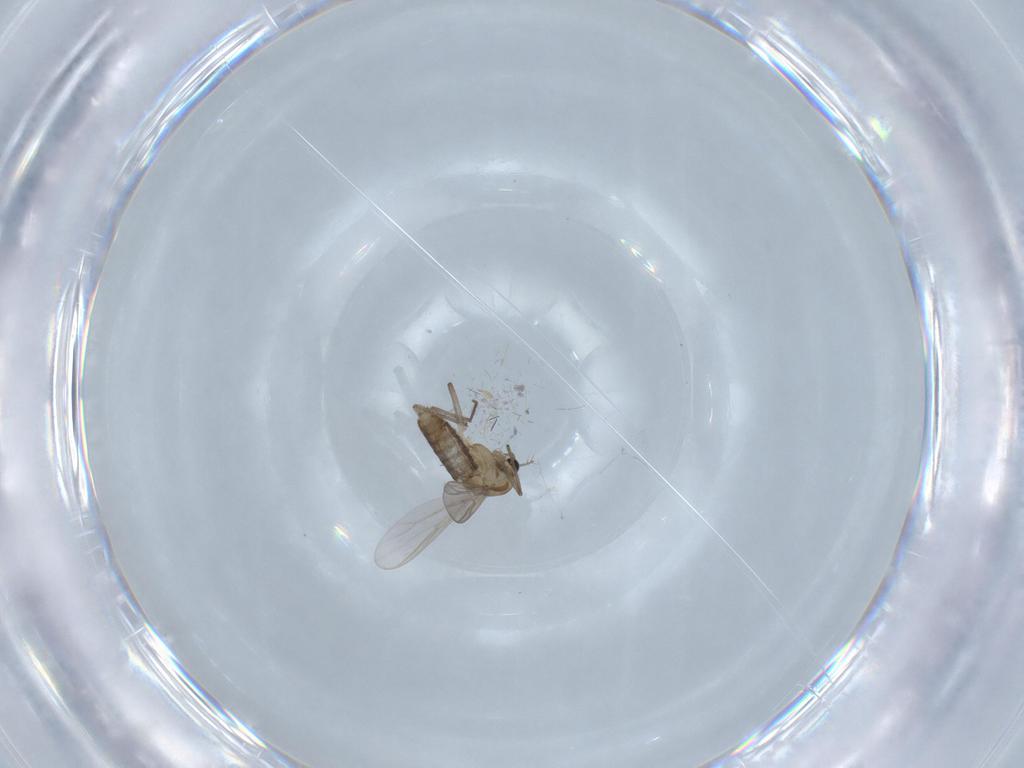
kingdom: Animalia
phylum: Arthropoda
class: Insecta
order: Diptera
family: Chironomidae
